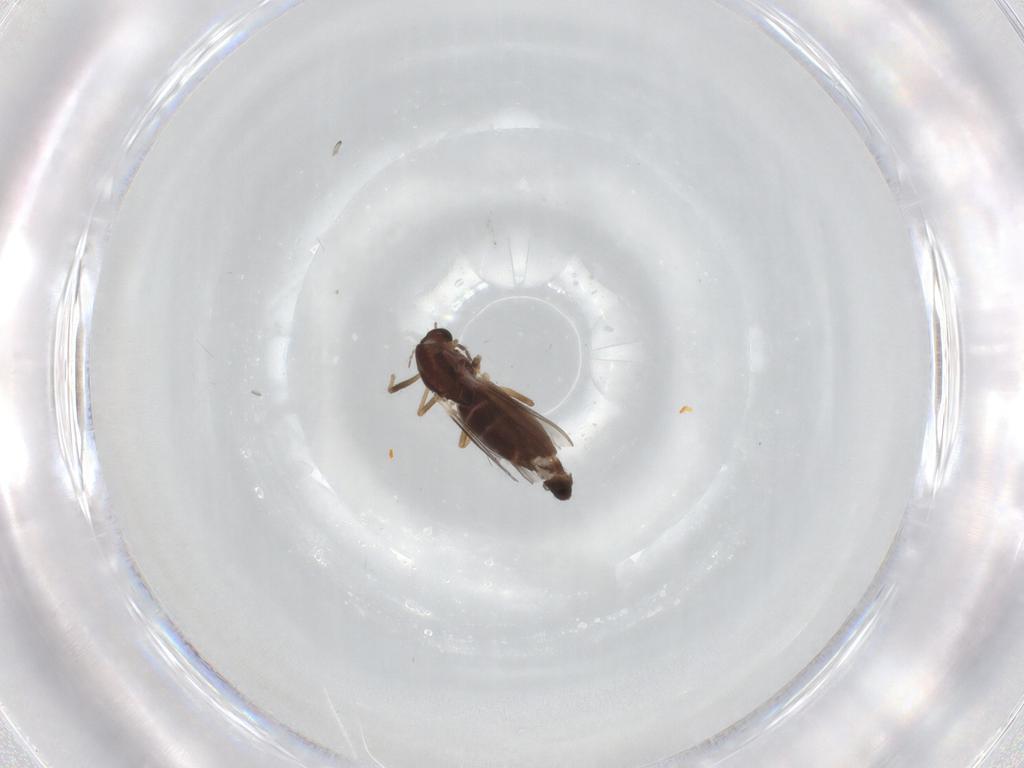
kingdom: Animalia
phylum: Arthropoda
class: Insecta
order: Diptera
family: Chironomidae
